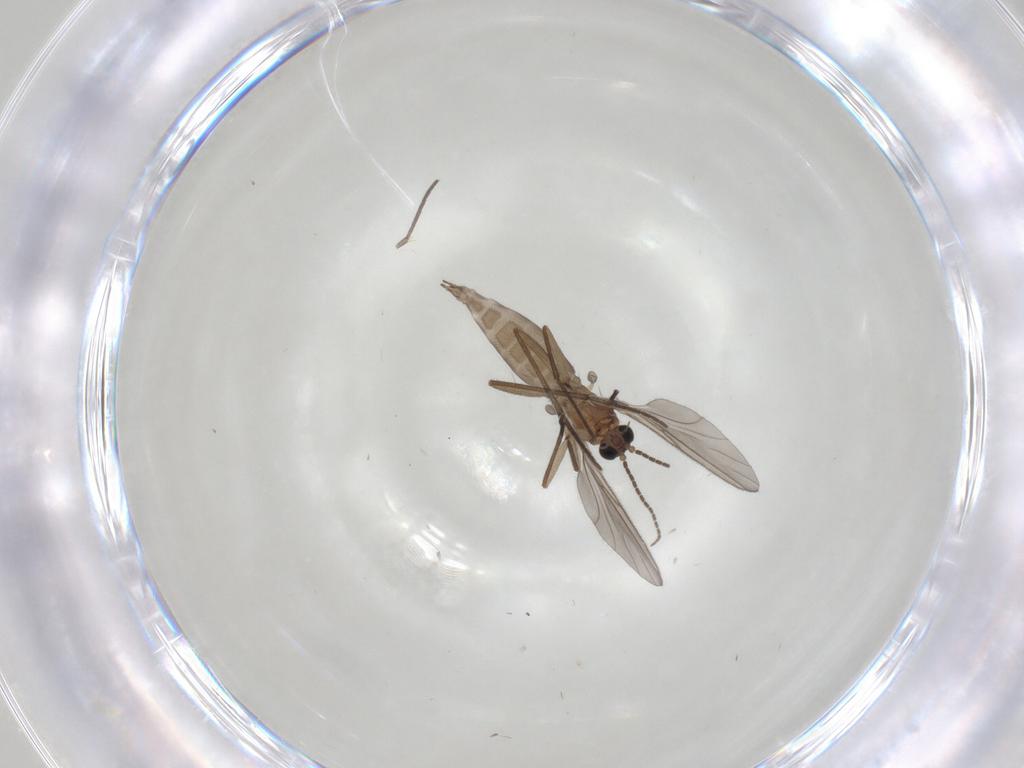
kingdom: Animalia
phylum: Arthropoda
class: Insecta
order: Diptera
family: Sciaridae
